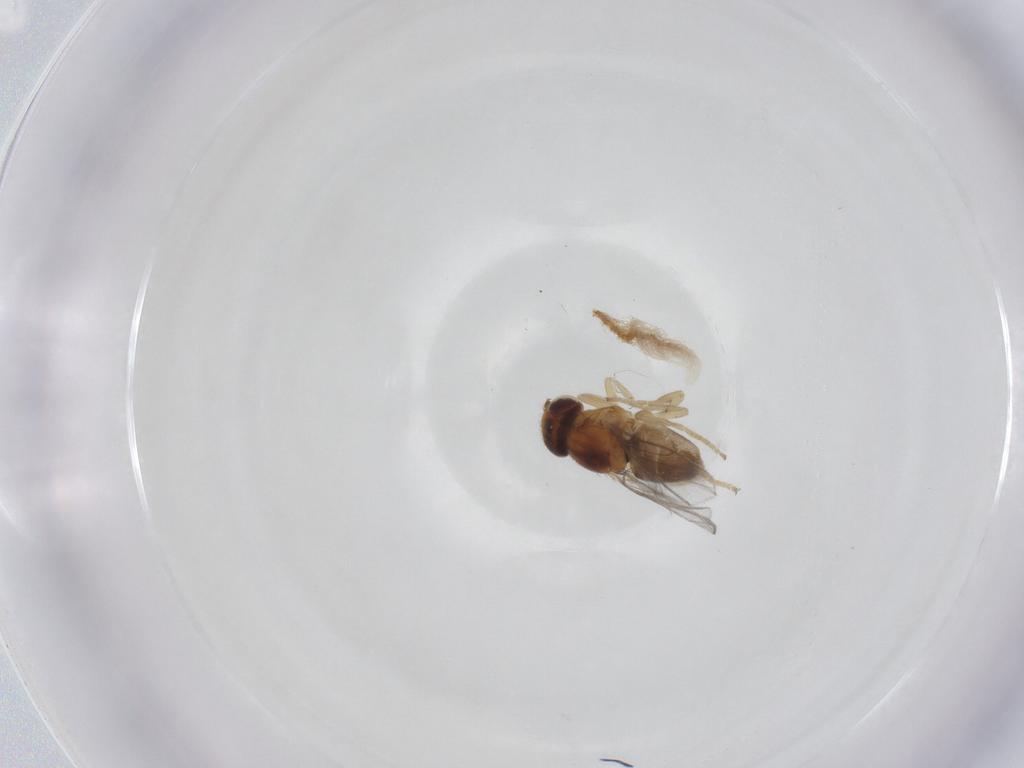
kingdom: Animalia
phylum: Arthropoda
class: Insecta
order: Diptera
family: Chloropidae
